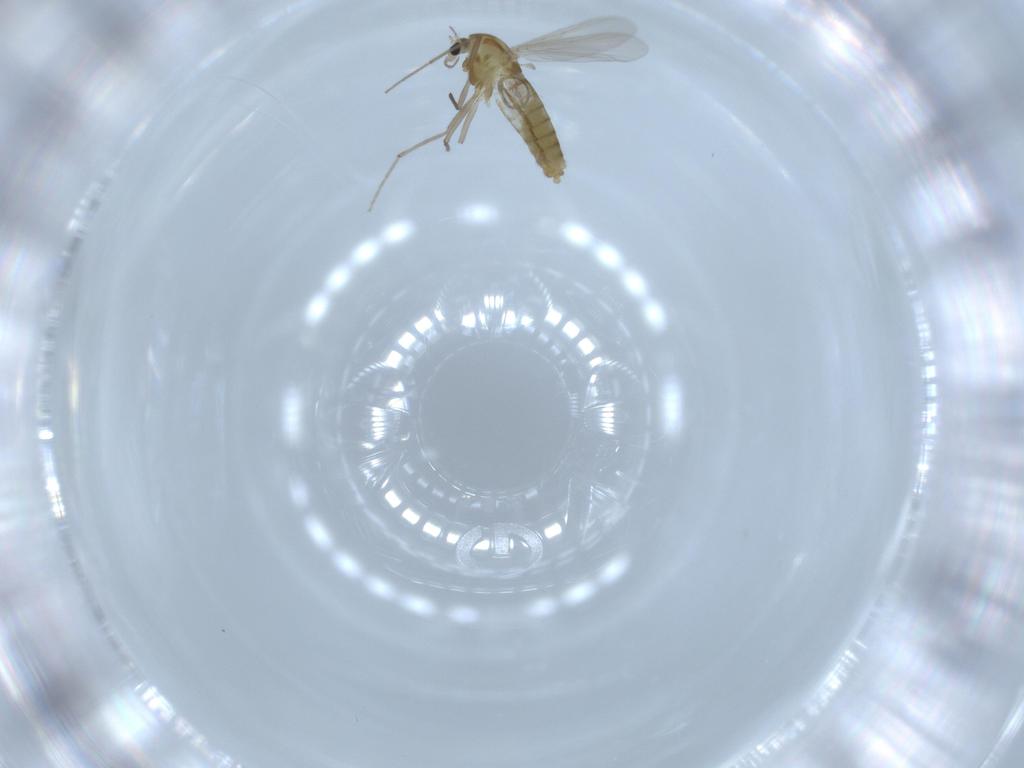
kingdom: Animalia
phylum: Arthropoda
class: Insecta
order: Diptera
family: Chironomidae
